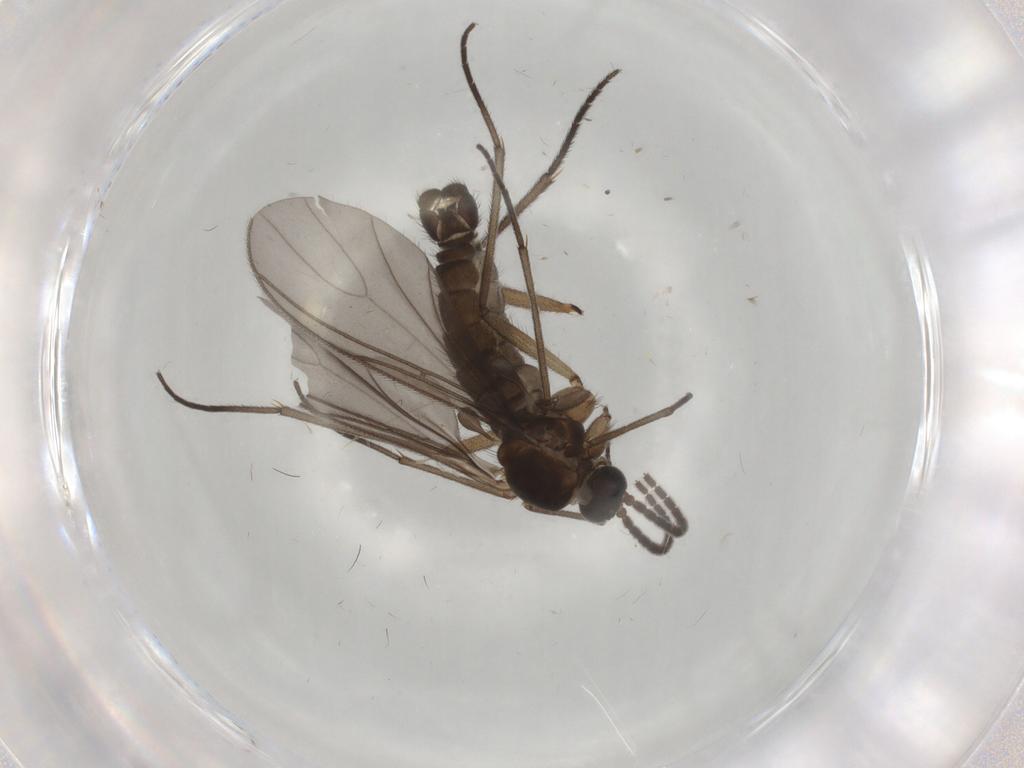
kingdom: Animalia
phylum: Arthropoda
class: Insecta
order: Diptera
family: Sciaridae
